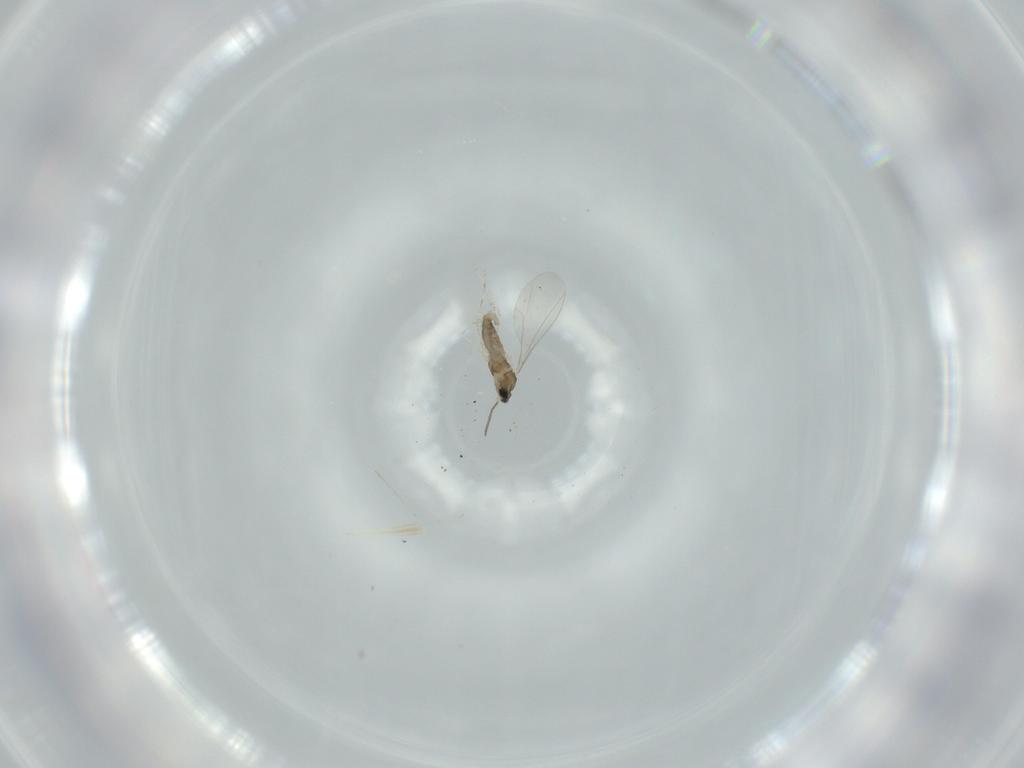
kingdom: Animalia
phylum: Arthropoda
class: Insecta
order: Diptera
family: Cecidomyiidae
